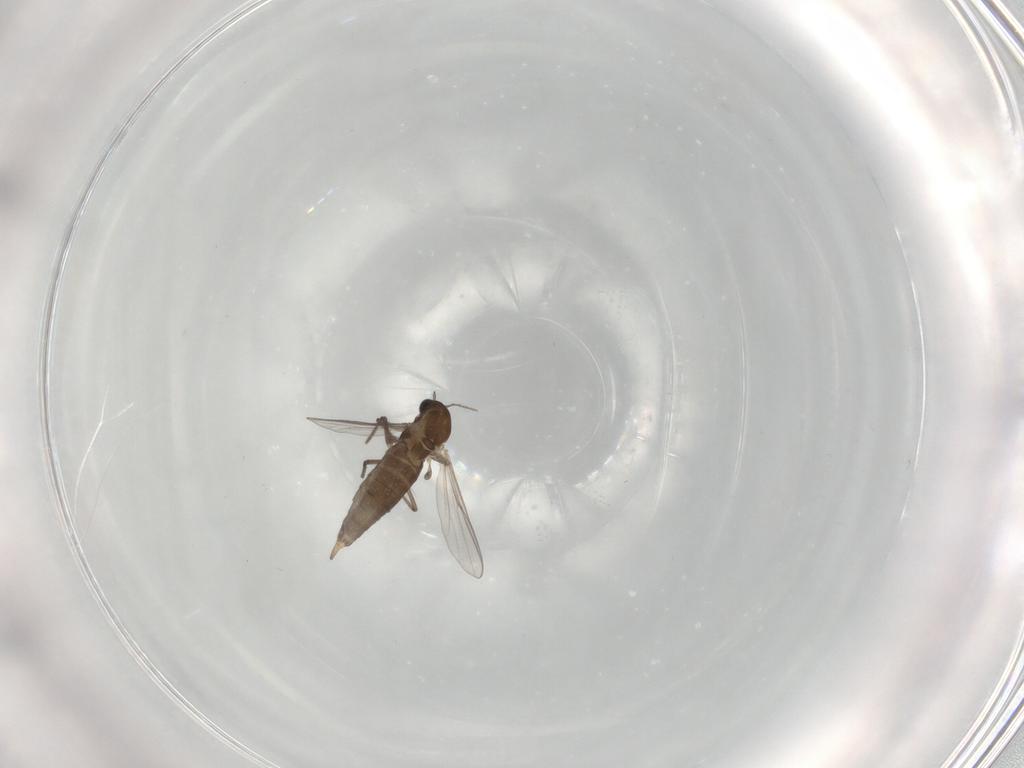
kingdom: Animalia
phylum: Arthropoda
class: Insecta
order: Diptera
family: Chironomidae
